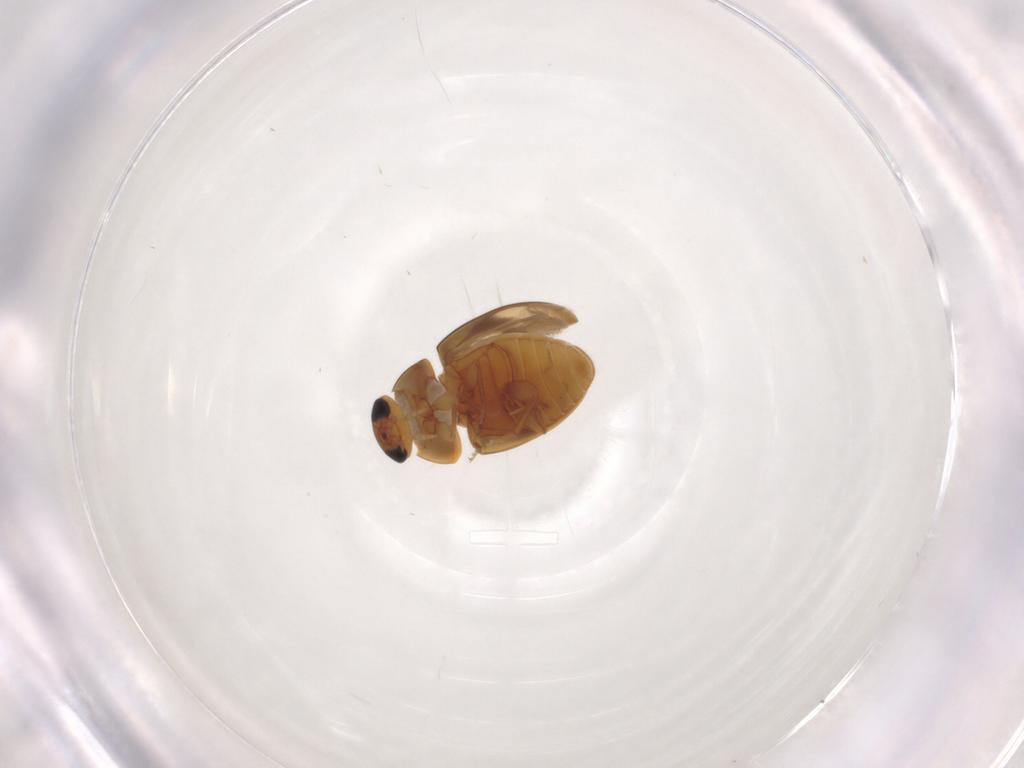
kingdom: Animalia
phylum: Arthropoda
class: Insecta
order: Coleoptera
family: Phalacridae
